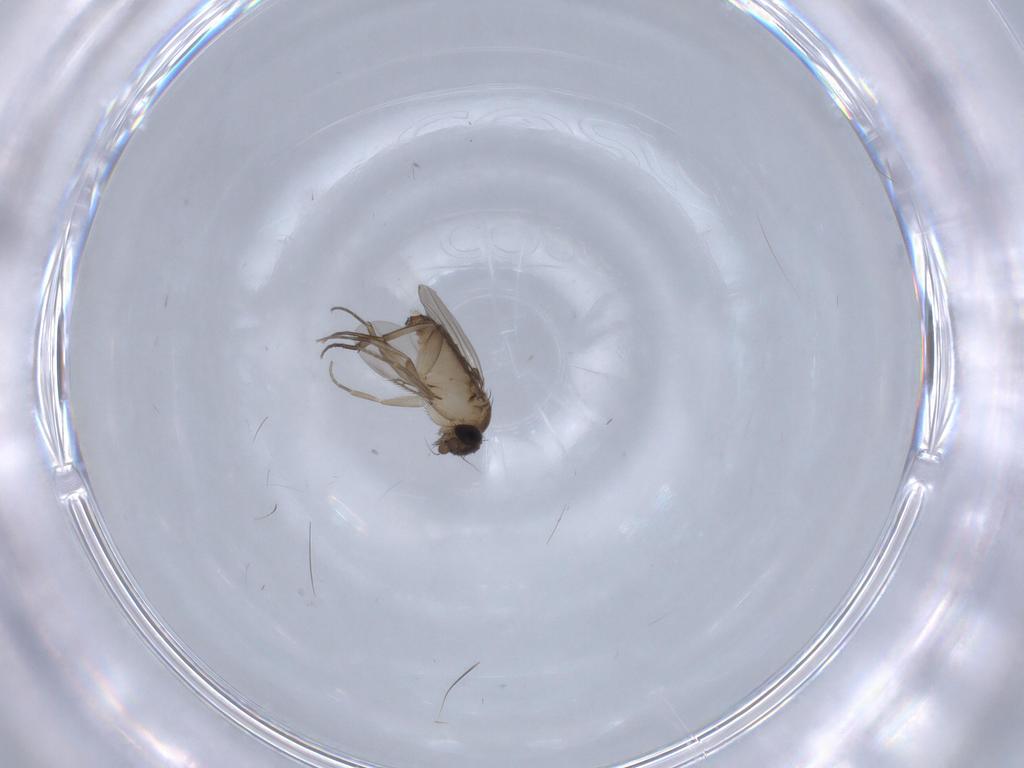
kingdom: Animalia
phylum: Arthropoda
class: Insecta
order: Diptera
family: Phoridae
